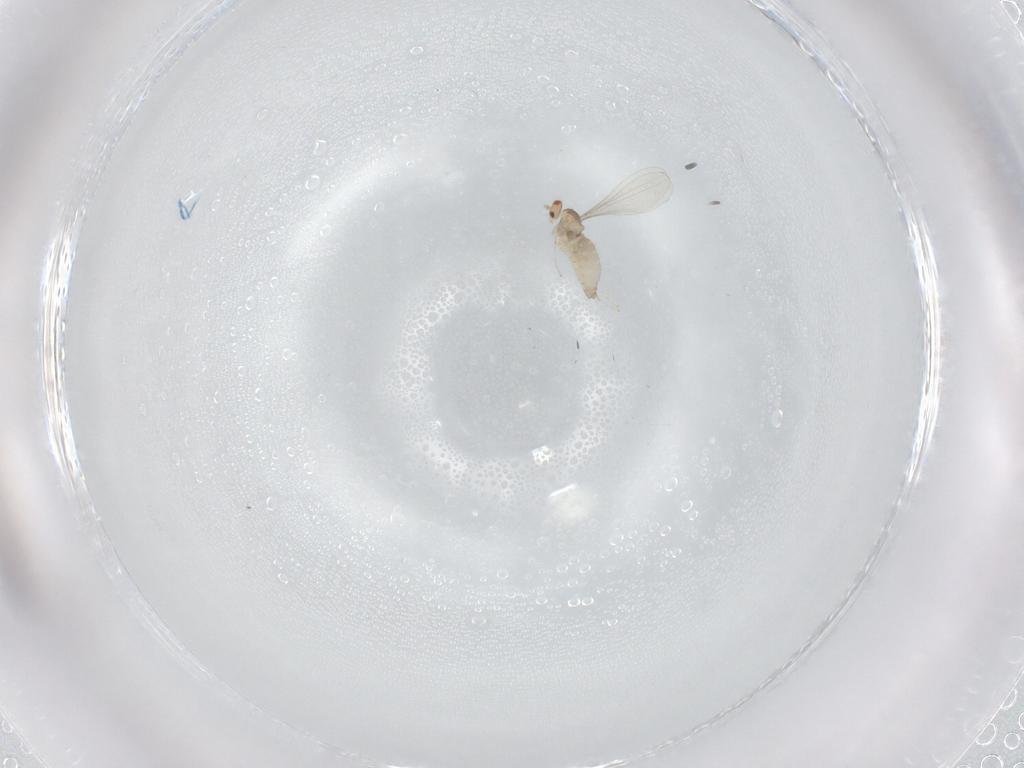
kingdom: Animalia
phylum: Arthropoda
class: Insecta
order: Diptera
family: Cecidomyiidae
